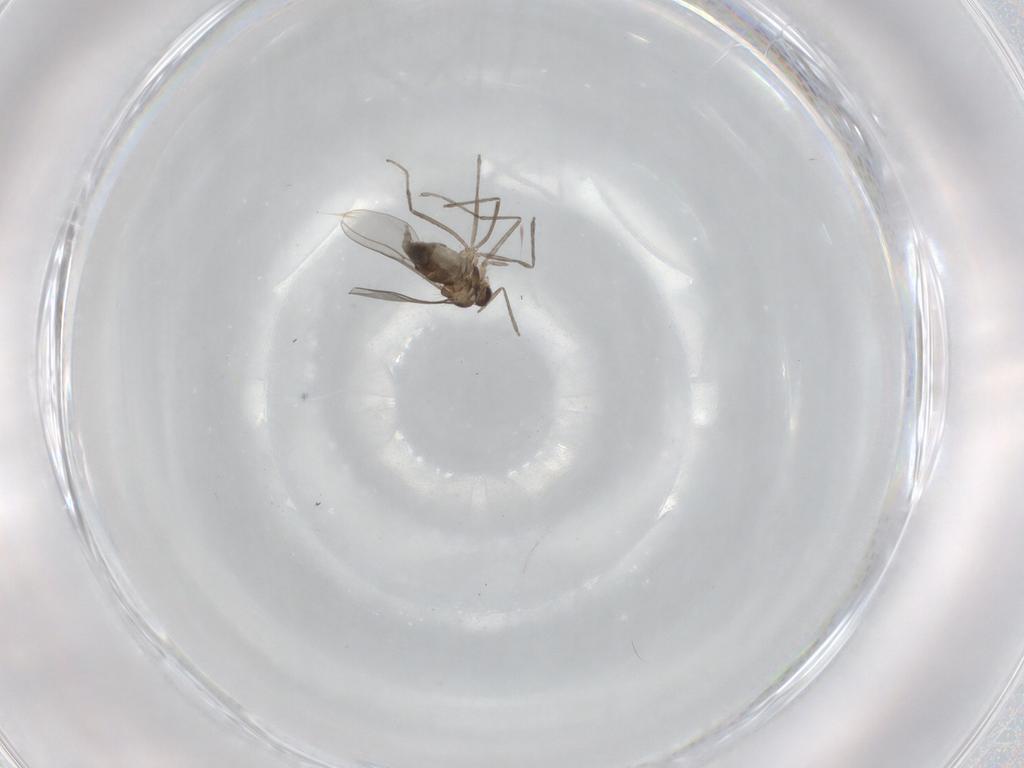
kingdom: Animalia
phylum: Arthropoda
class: Insecta
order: Diptera
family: Cecidomyiidae
